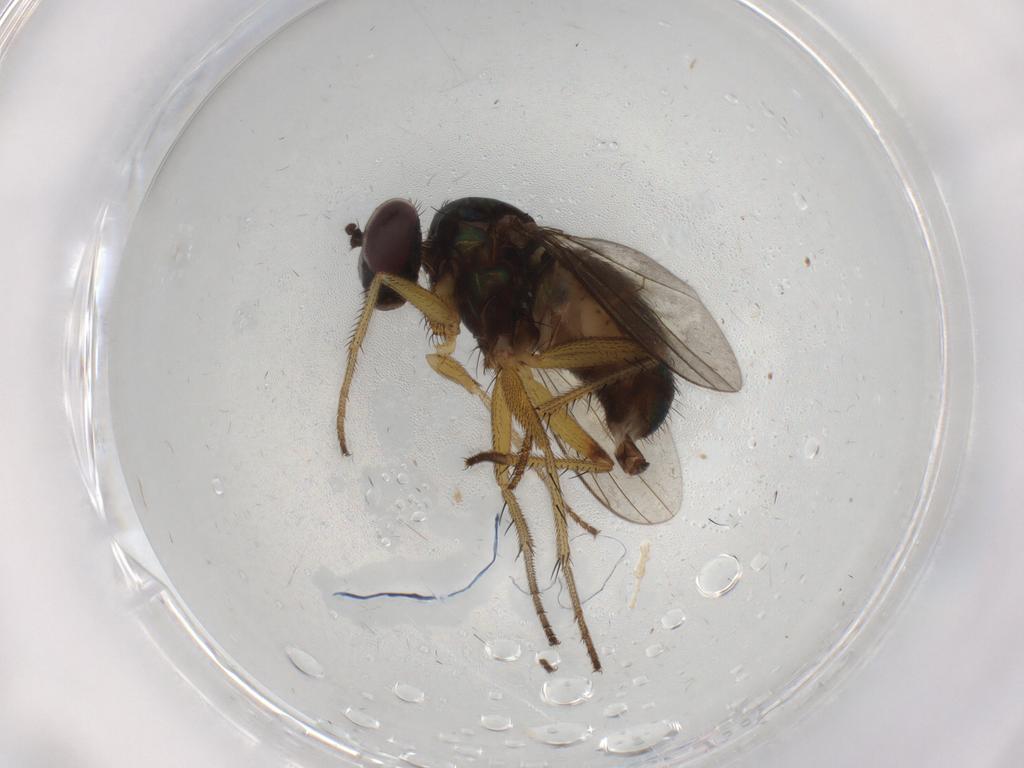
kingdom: Animalia
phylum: Arthropoda
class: Insecta
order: Diptera
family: Dolichopodidae
